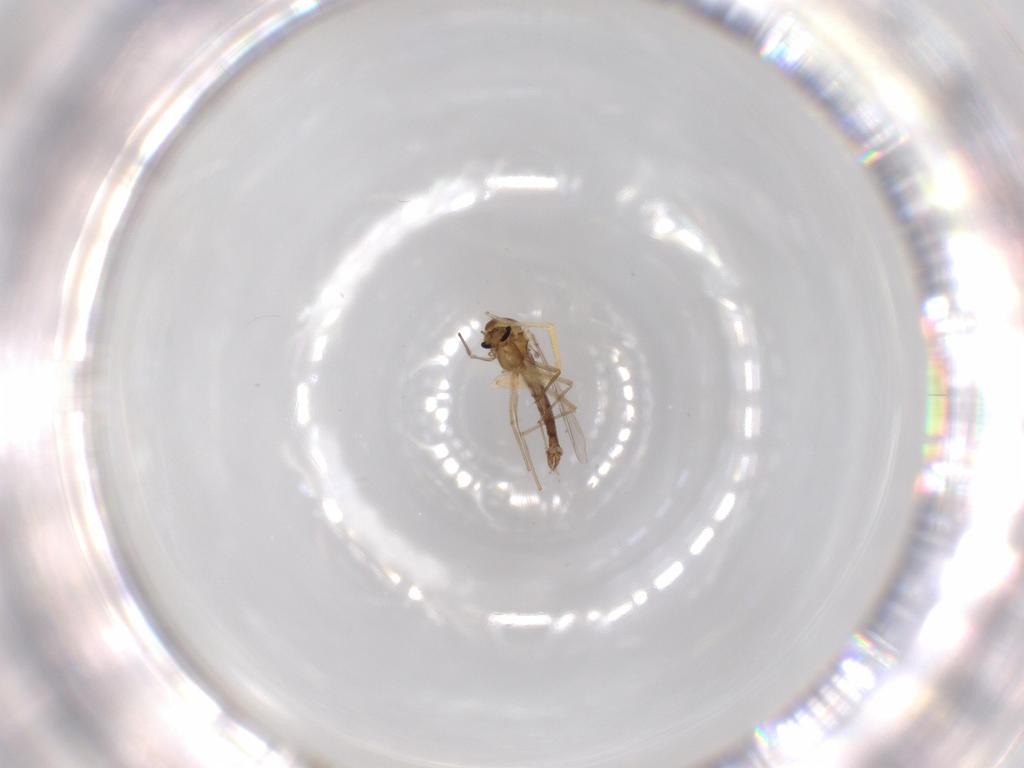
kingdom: Animalia
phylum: Arthropoda
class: Insecta
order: Diptera
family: Chironomidae
